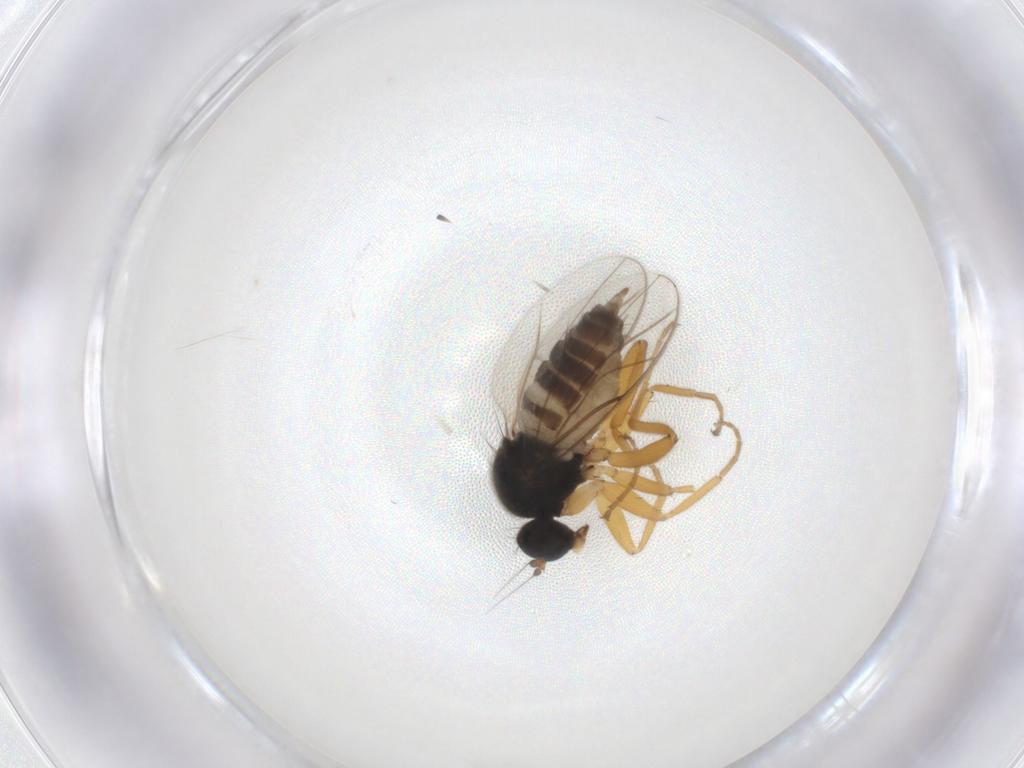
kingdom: Animalia
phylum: Arthropoda
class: Insecta
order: Diptera
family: Hybotidae
